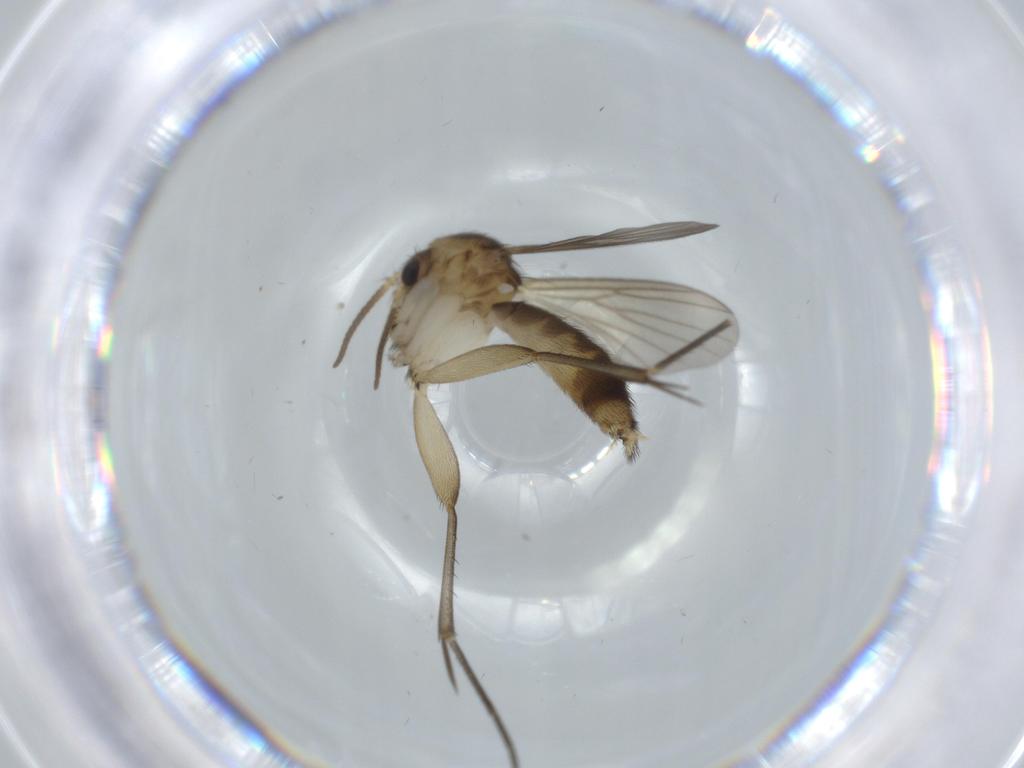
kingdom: Animalia
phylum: Arthropoda
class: Insecta
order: Diptera
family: Mycetophilidae
